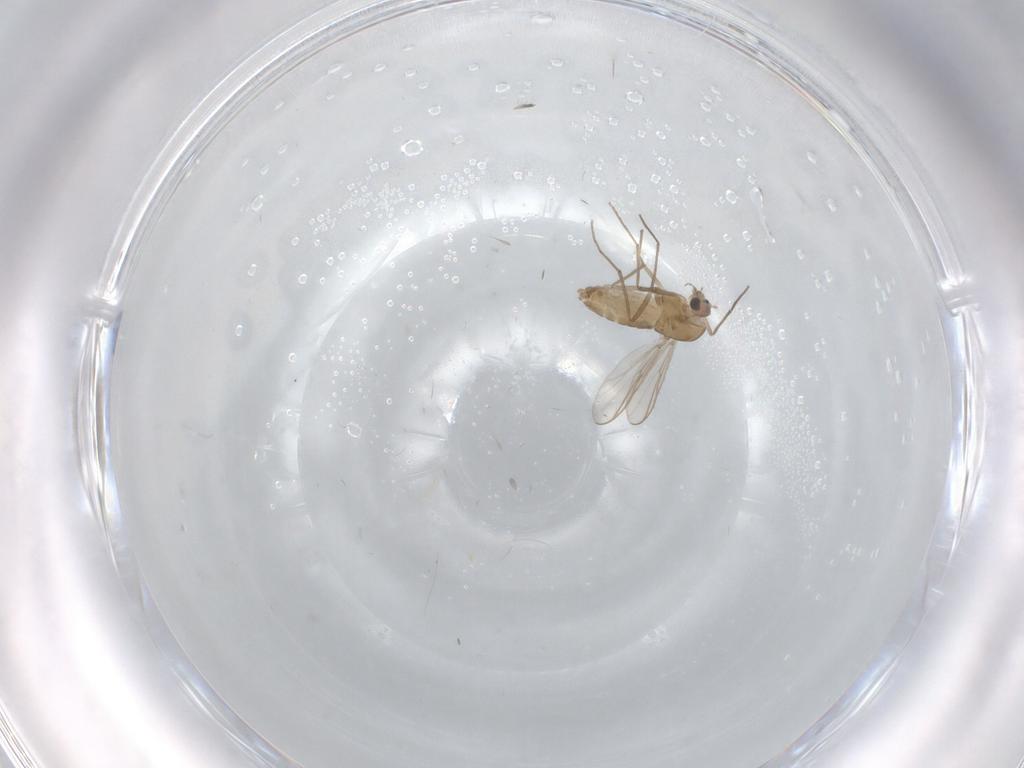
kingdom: Animalia
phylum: Arthropoda
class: Insecta
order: Diptera
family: Chironomidae
